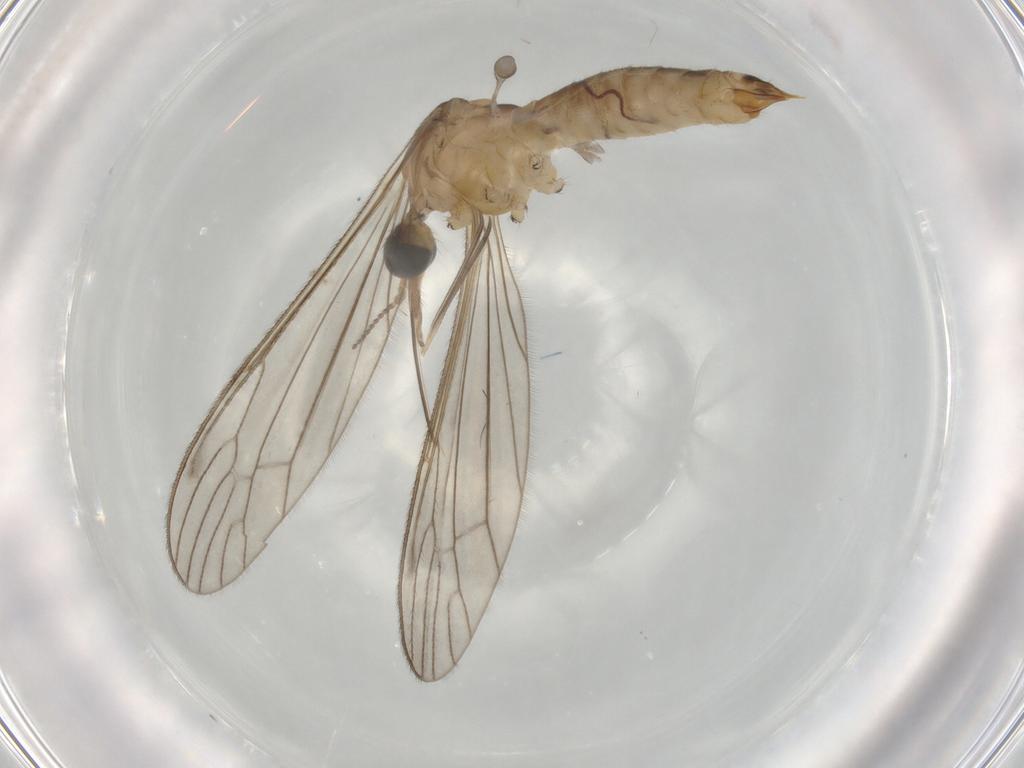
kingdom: Animalia
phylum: Arthropoda
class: Insecta
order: Diptera
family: Limoniidae
